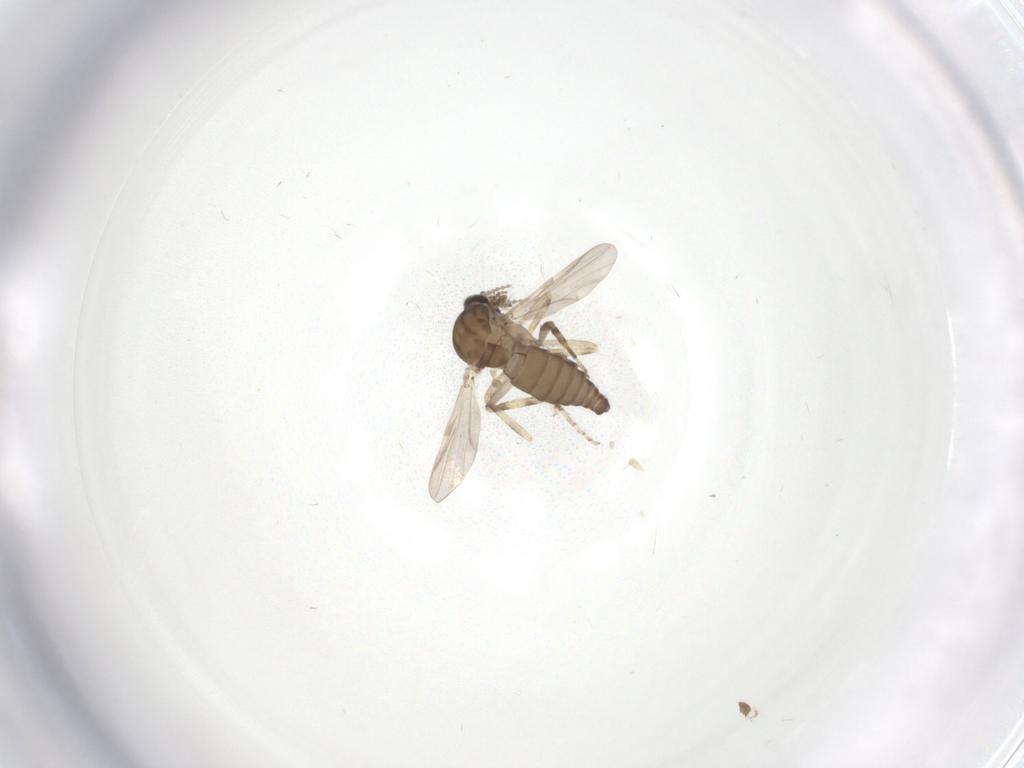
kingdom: Animalia
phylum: Arthropoda
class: Insecta
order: Diptera
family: Ceratopogonidae
